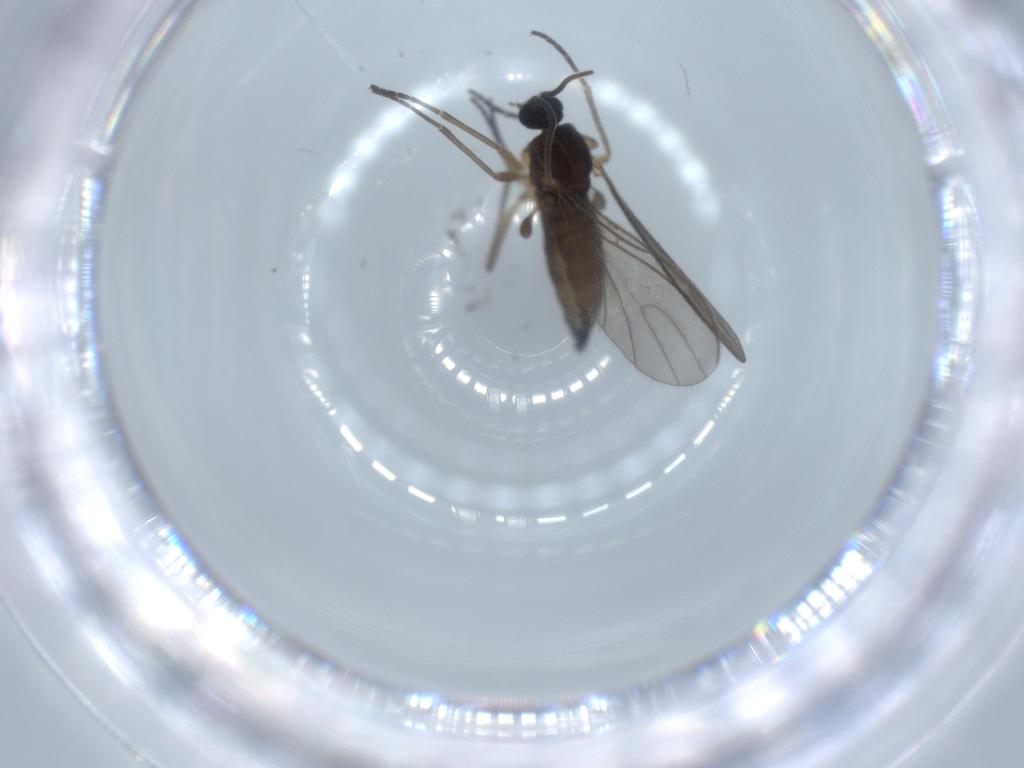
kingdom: Animalia
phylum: Arthropoda
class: Insecta
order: Diptera
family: Sciaridae
